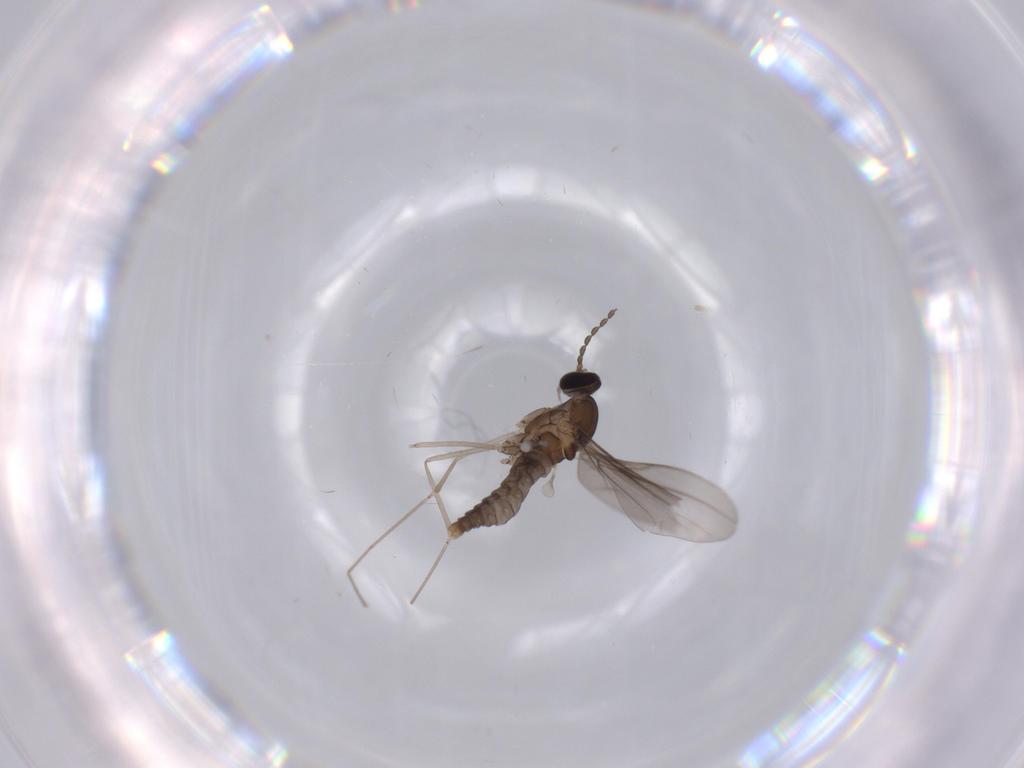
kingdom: Animalia
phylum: Arthropoda
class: Insecta
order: Diptera
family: Cecidomyiidae
